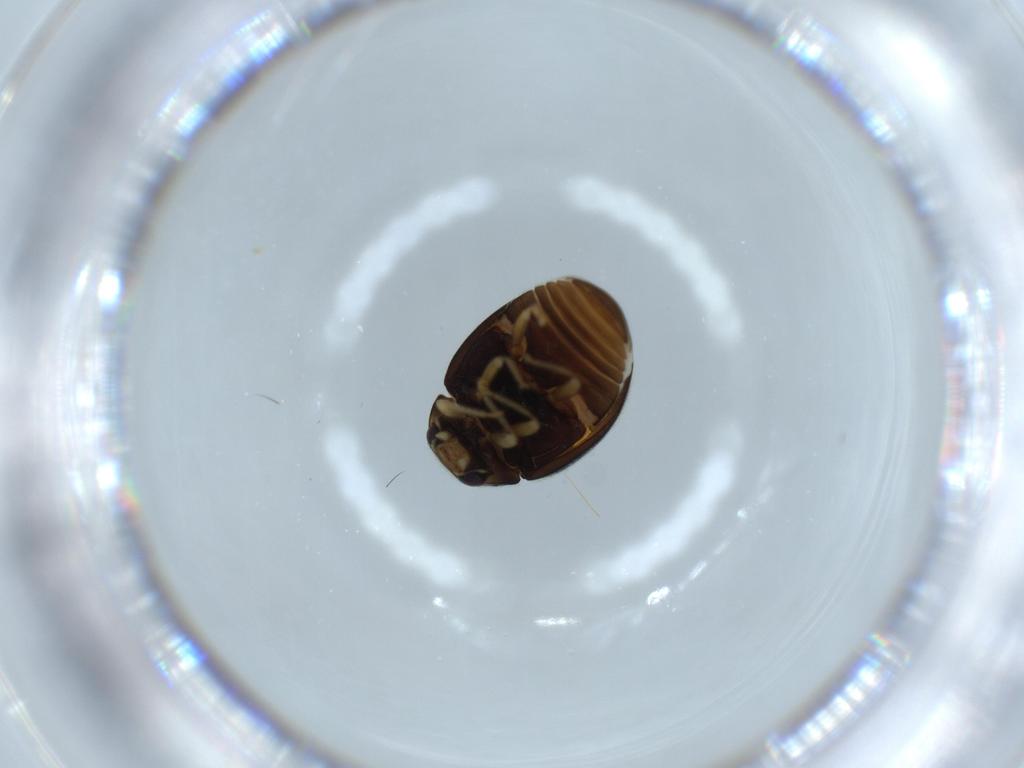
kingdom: Animalia
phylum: Arthropoda
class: Insecta
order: Coleoptera
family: Coccinellidae
